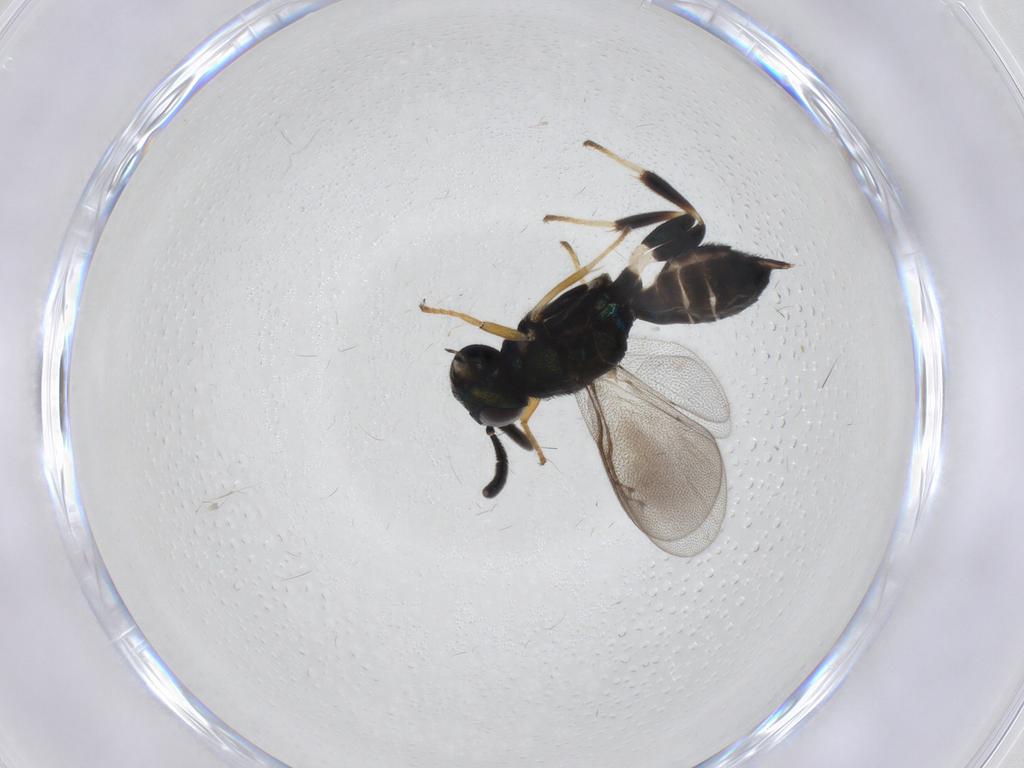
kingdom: Animalia
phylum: Arthropoda
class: Insecta
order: Hymenoptera
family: Eupelmidae
